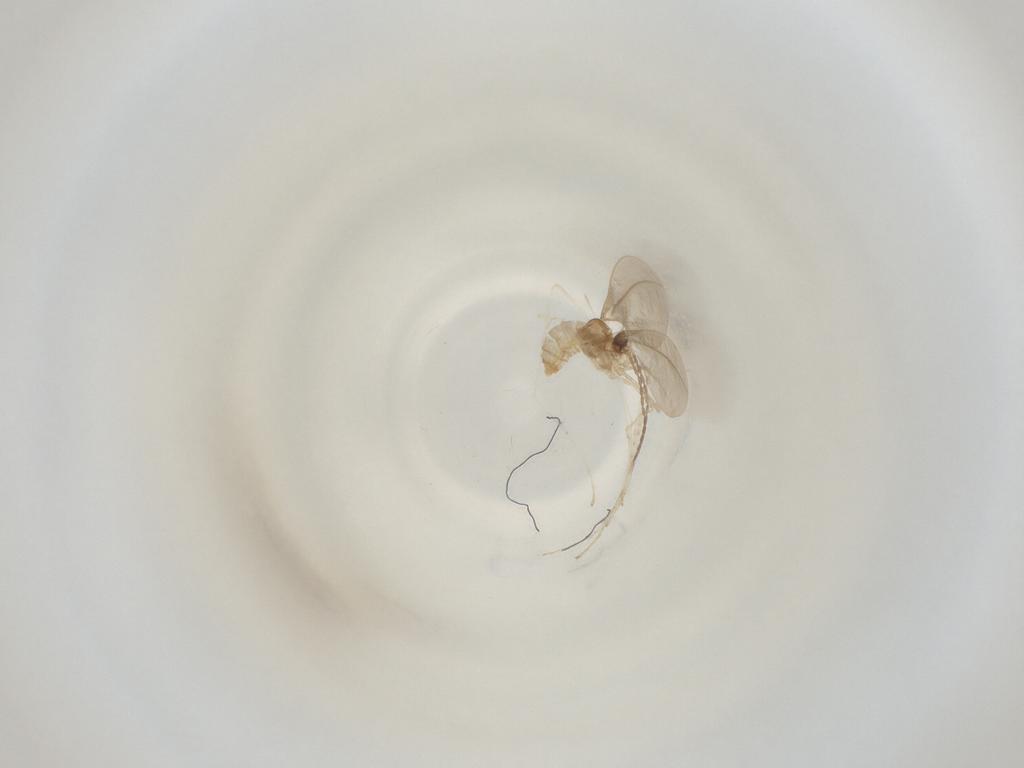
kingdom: Animalia
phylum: Arthropoda
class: Insecta
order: Diptera
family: Cecidomyiidae
